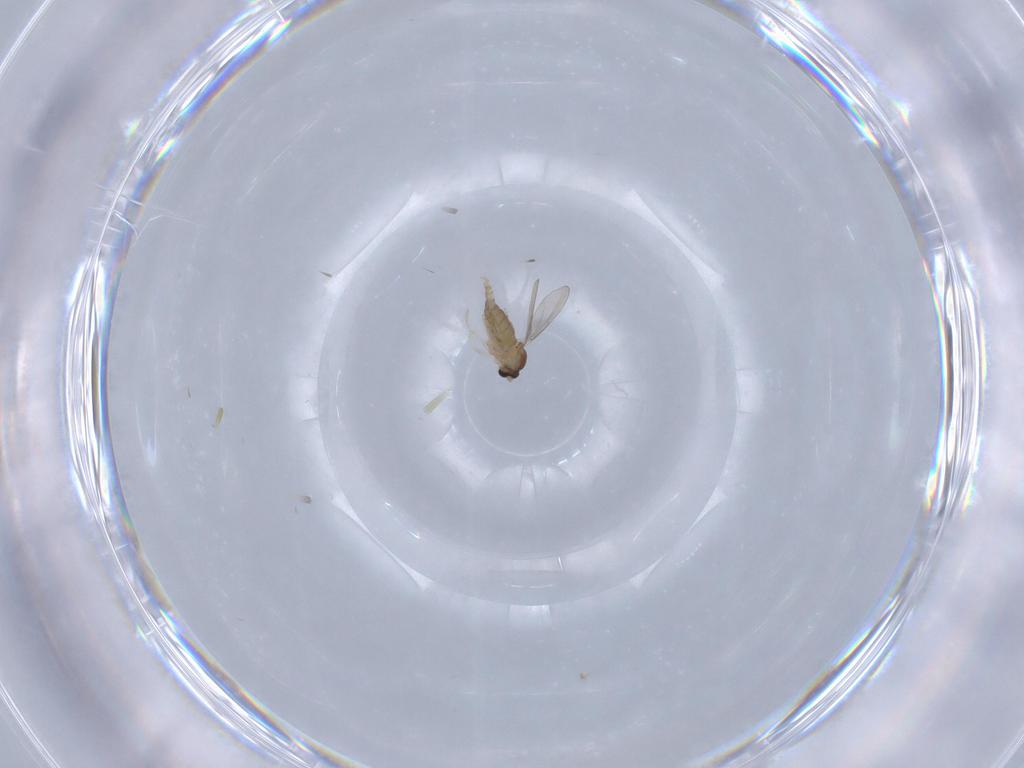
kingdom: Animalia
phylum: Arthropoda
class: Insecta
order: Diptera
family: Cecidomyiidae
